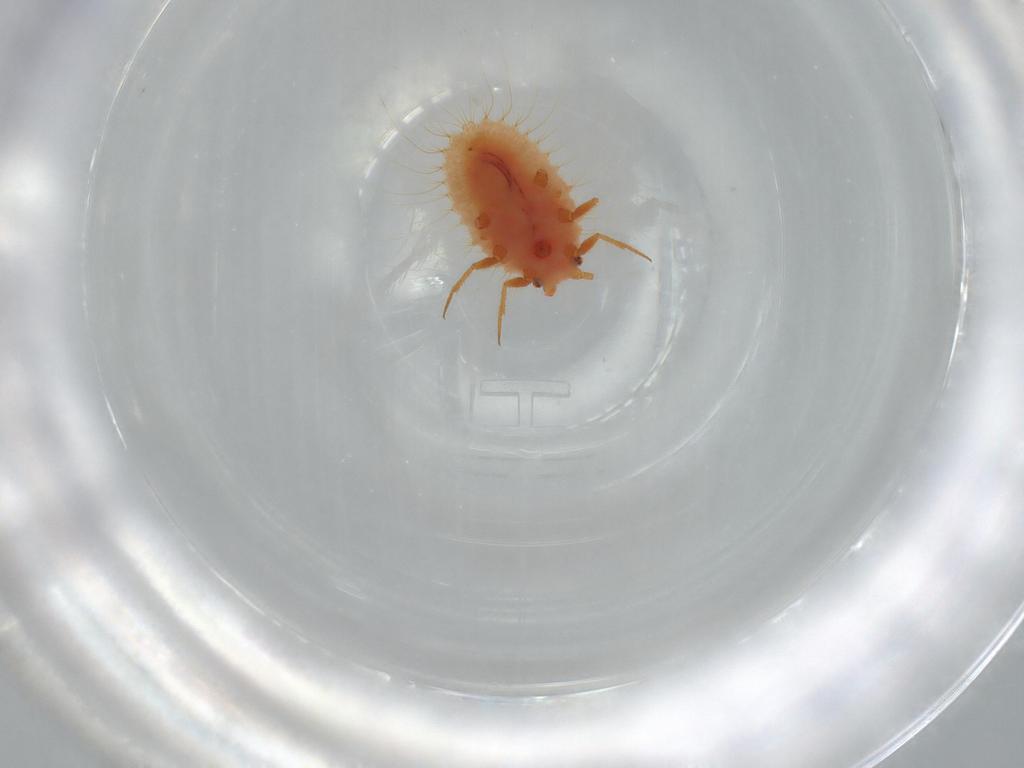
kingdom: Animalia
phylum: Arthropoda
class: Insecta
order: Hemiptera
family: Coccoidea_incertae_sedis
